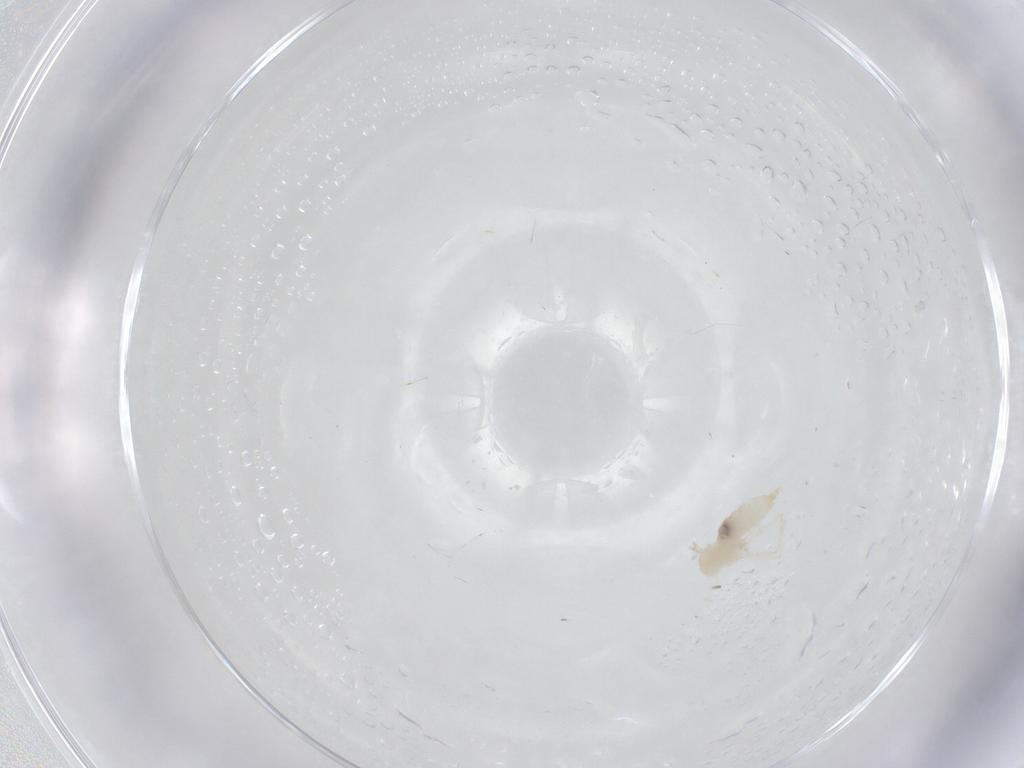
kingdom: Animalia
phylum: Arthropoda
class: Insecta
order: Diptera
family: Cecidomyiidae
